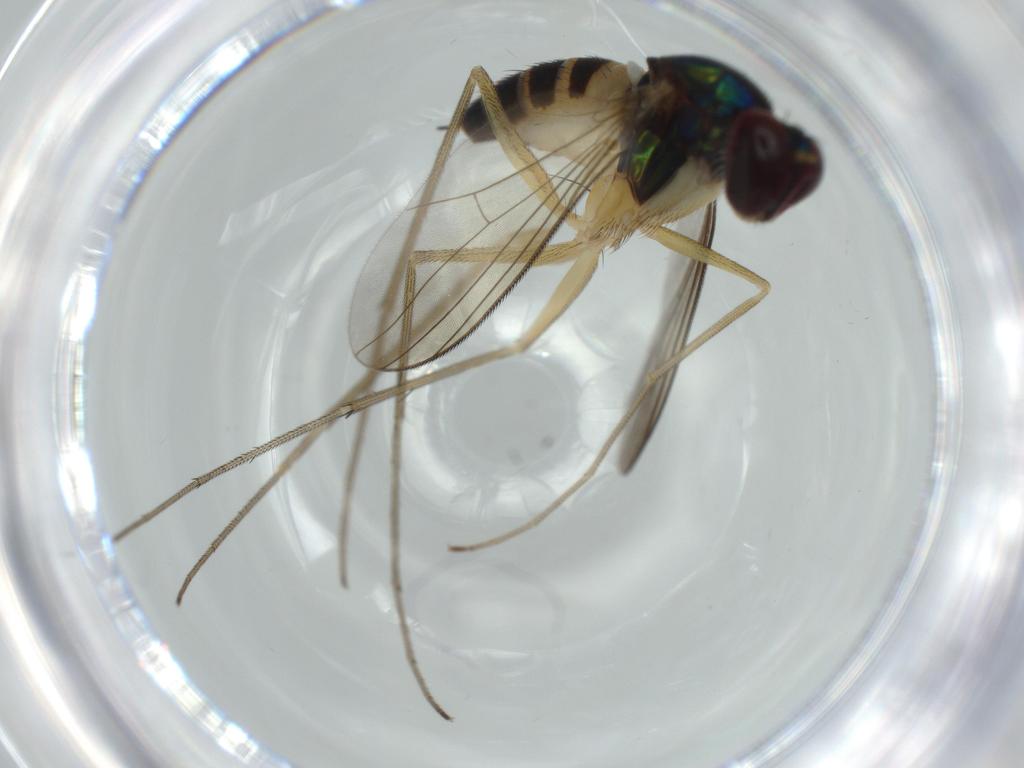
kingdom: Animalia
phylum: Arthropoda
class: Insecta
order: Diptera
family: Dolichopodidae
